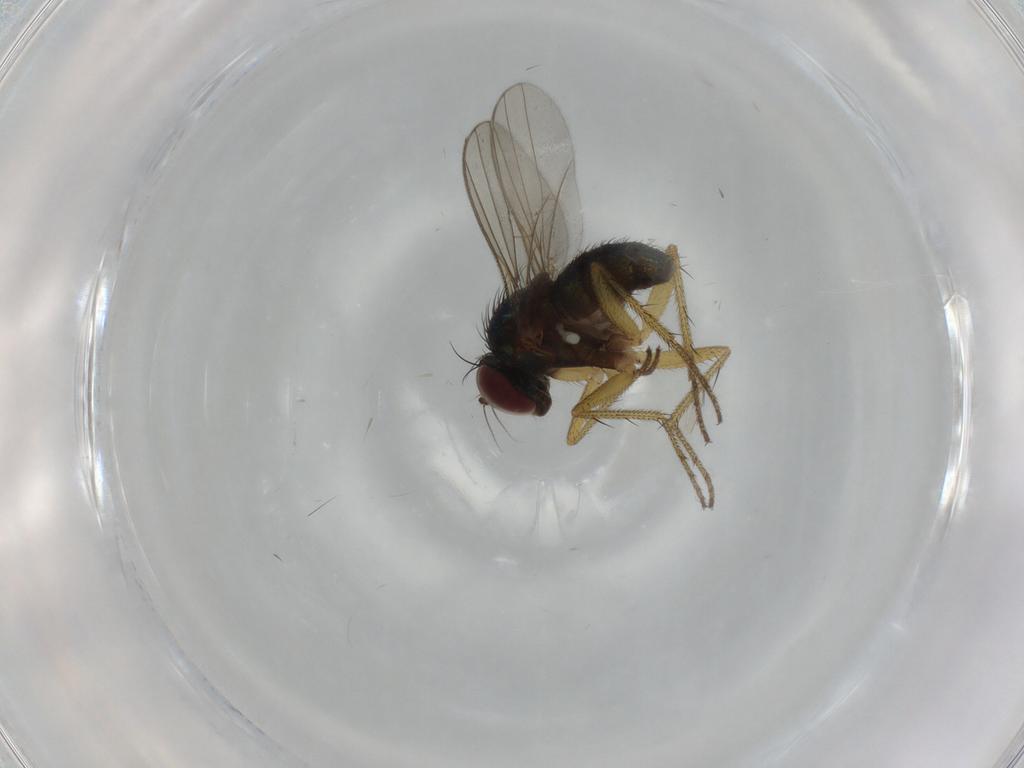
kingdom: Animalia
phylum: Arthropoda
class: Insecta
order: Diptera
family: Dolichopodidae
